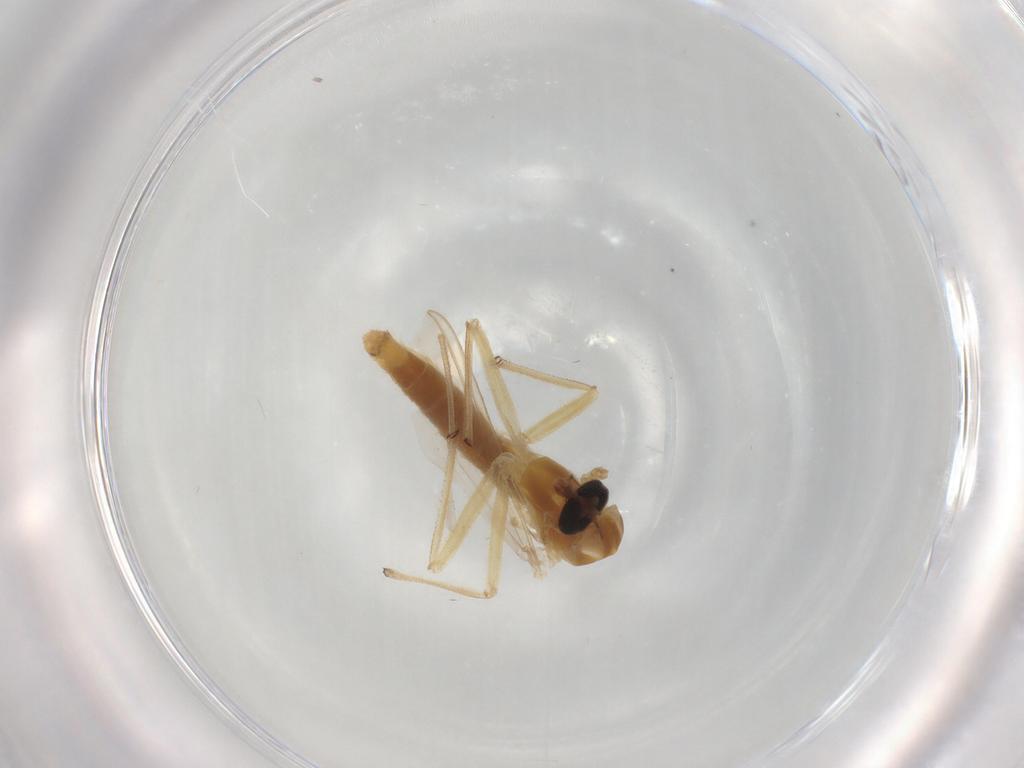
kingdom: Animalia
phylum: Arthropoda
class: Insecta
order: Diptera
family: Chironomidae
